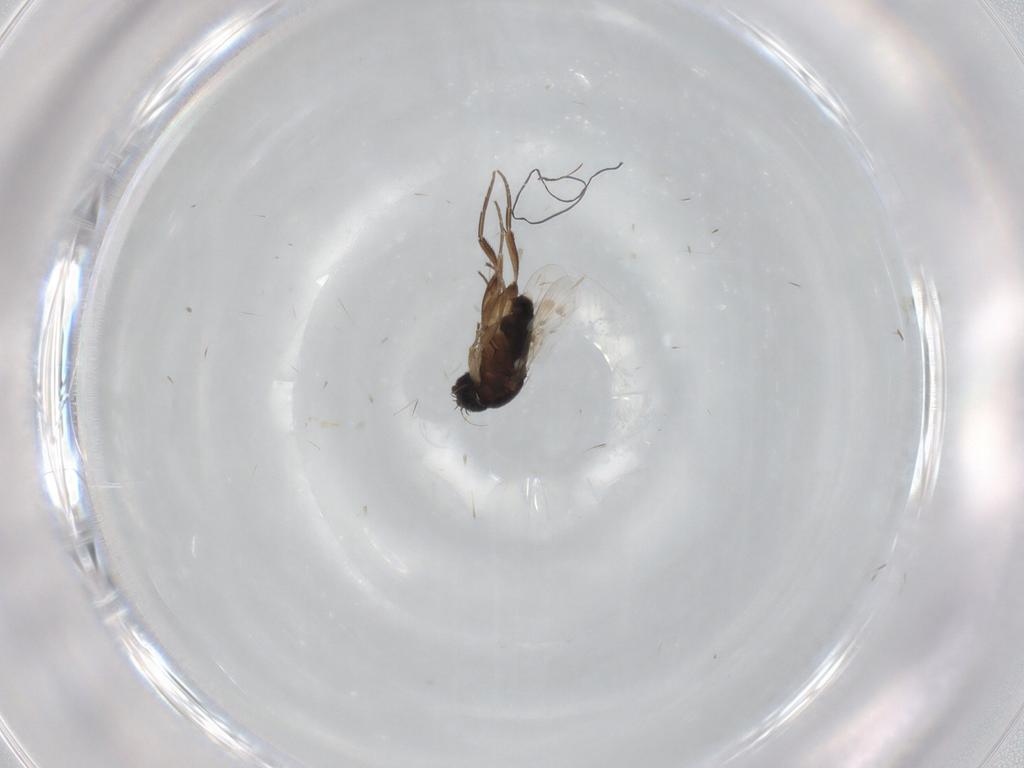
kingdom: Animalia
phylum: Arthropoda
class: Insecta
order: Diptera
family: Phoridae
